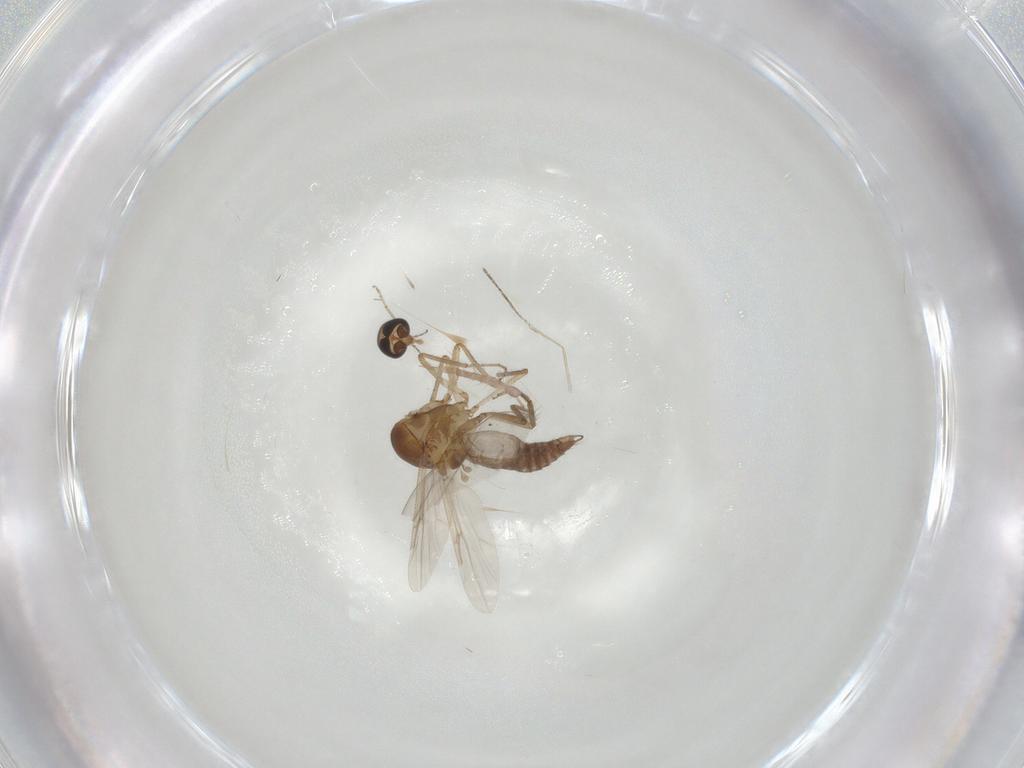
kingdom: Animalia
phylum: Arthropoda
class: Insecta
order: Diptera
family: Ceratopogonidae
